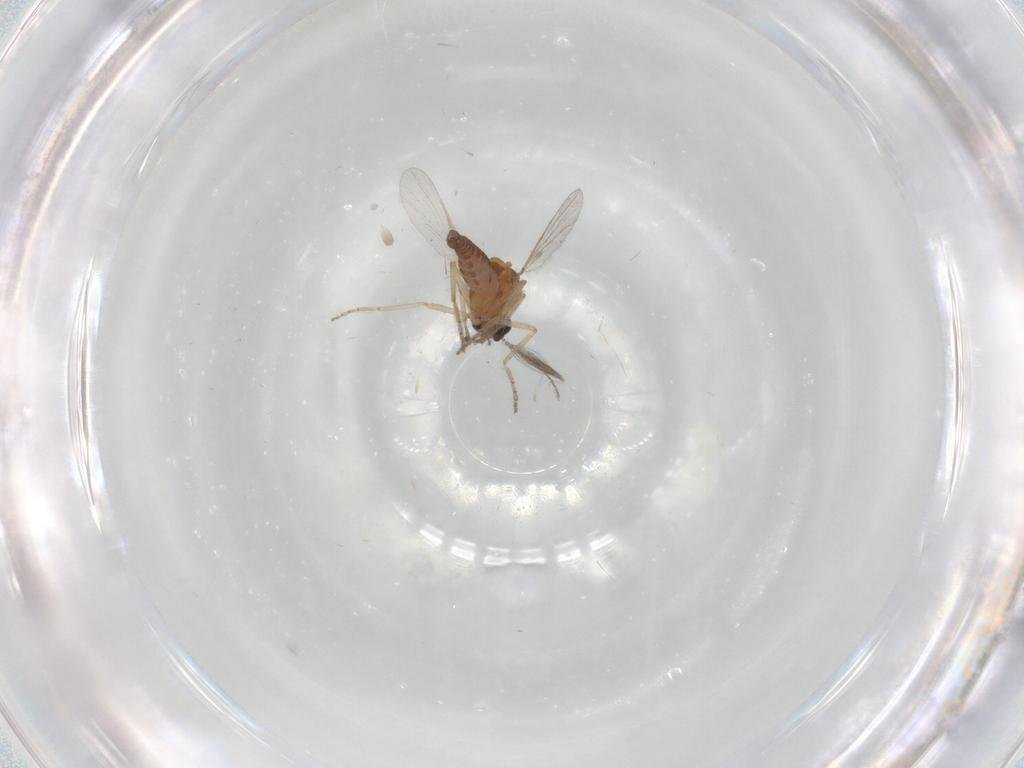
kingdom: Animalia
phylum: Arthropoda
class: Insecta
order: Diptera
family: Ceratopogonidae
